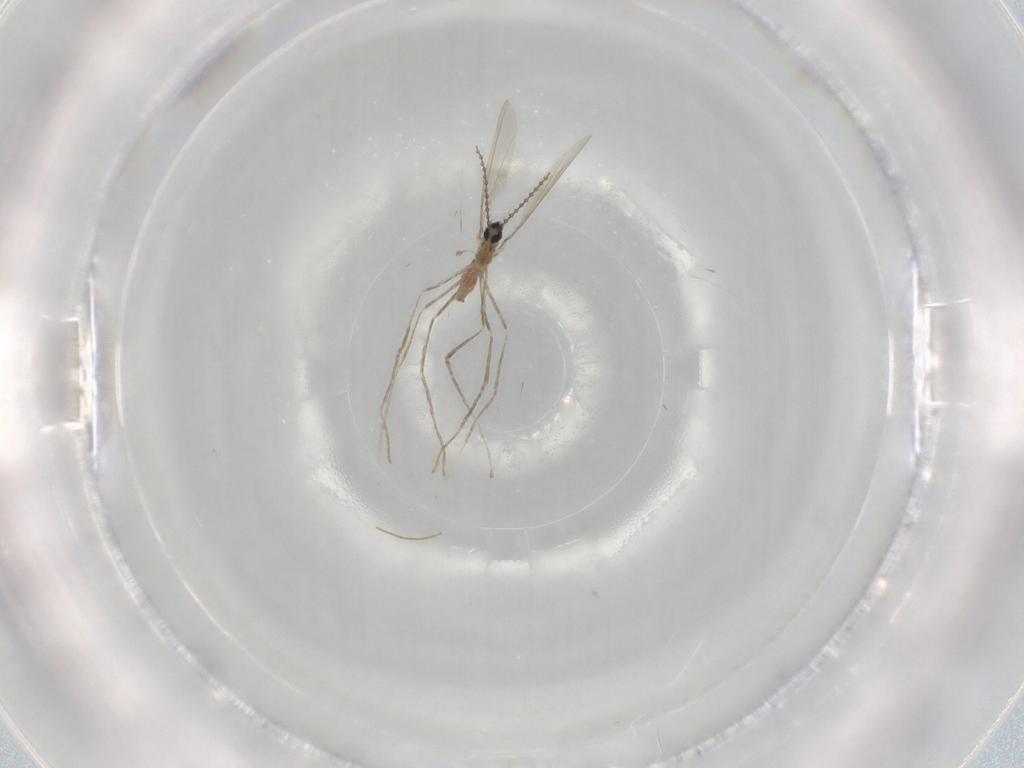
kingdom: Animalia
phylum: Arthropoda
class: Insecta
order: Diptera
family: Cecidomyiidae
